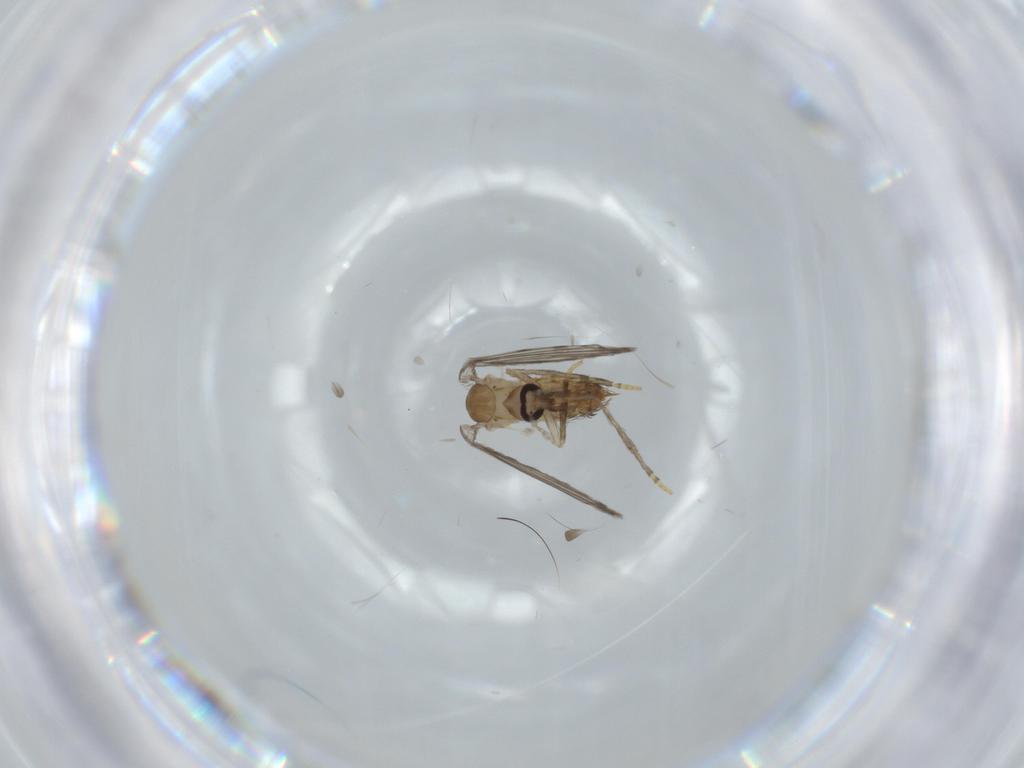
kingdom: Animalia
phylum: Arthropoda
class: Insecta
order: Diptera
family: Psychodidae
